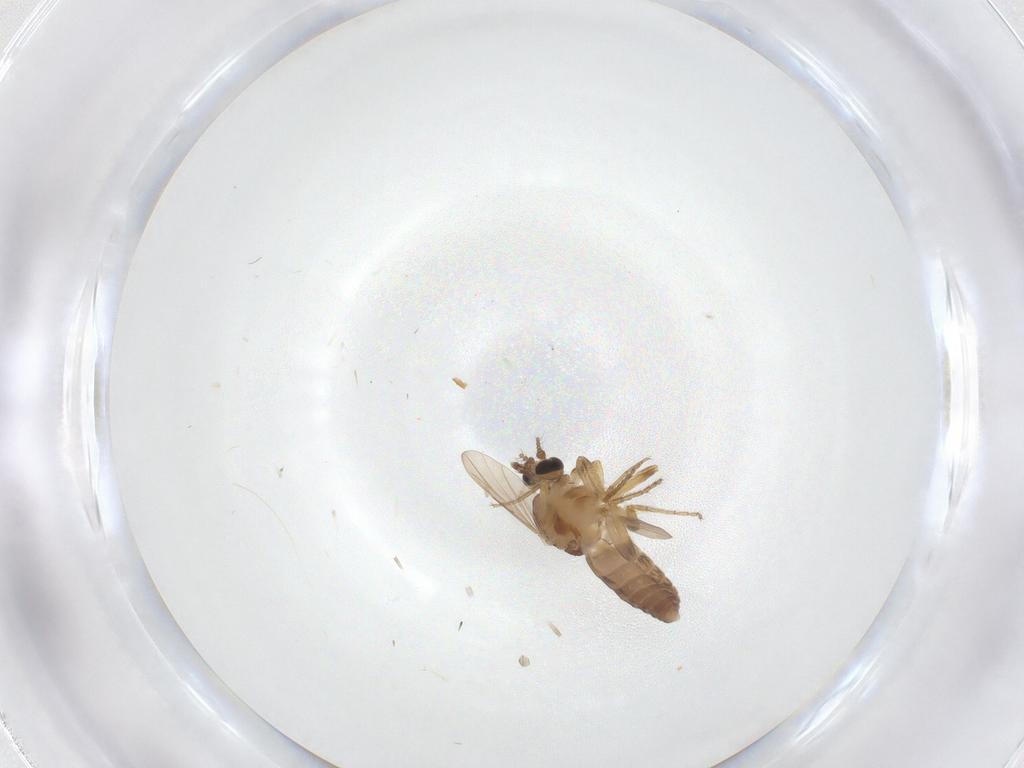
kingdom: Animalia
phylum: Arthropoda
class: Insecta
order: Diptera
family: Ceratopogonidae
